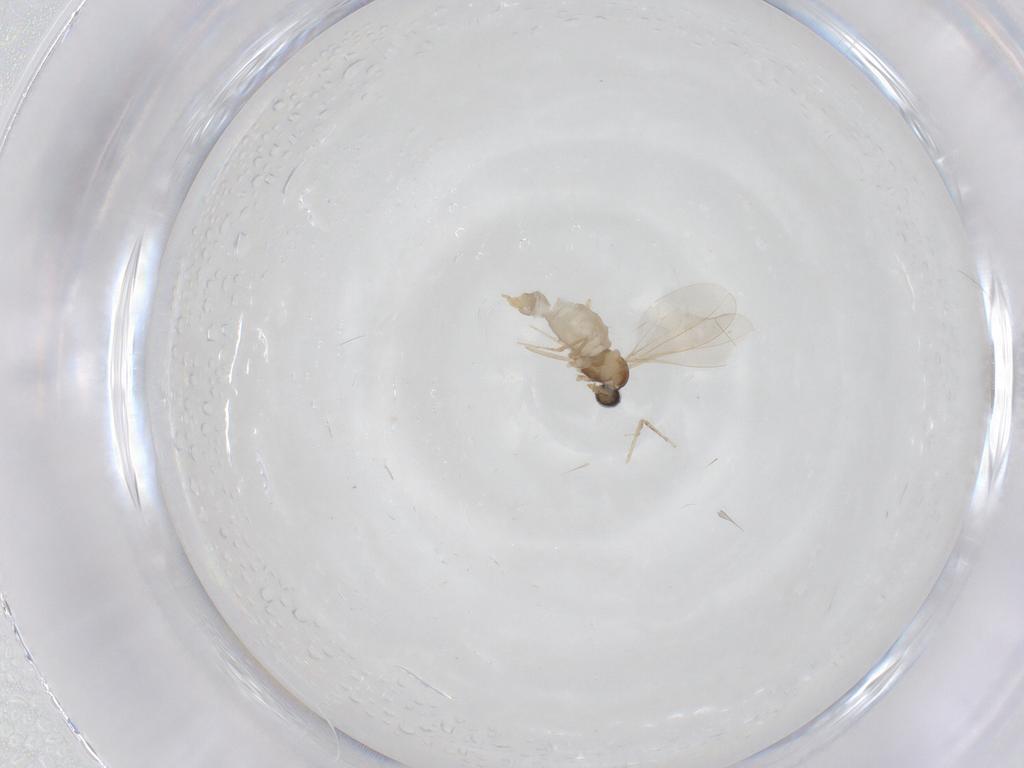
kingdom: Animalia
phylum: Arthropoda
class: Insecta
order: Diptera
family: Cecidomyiidae
